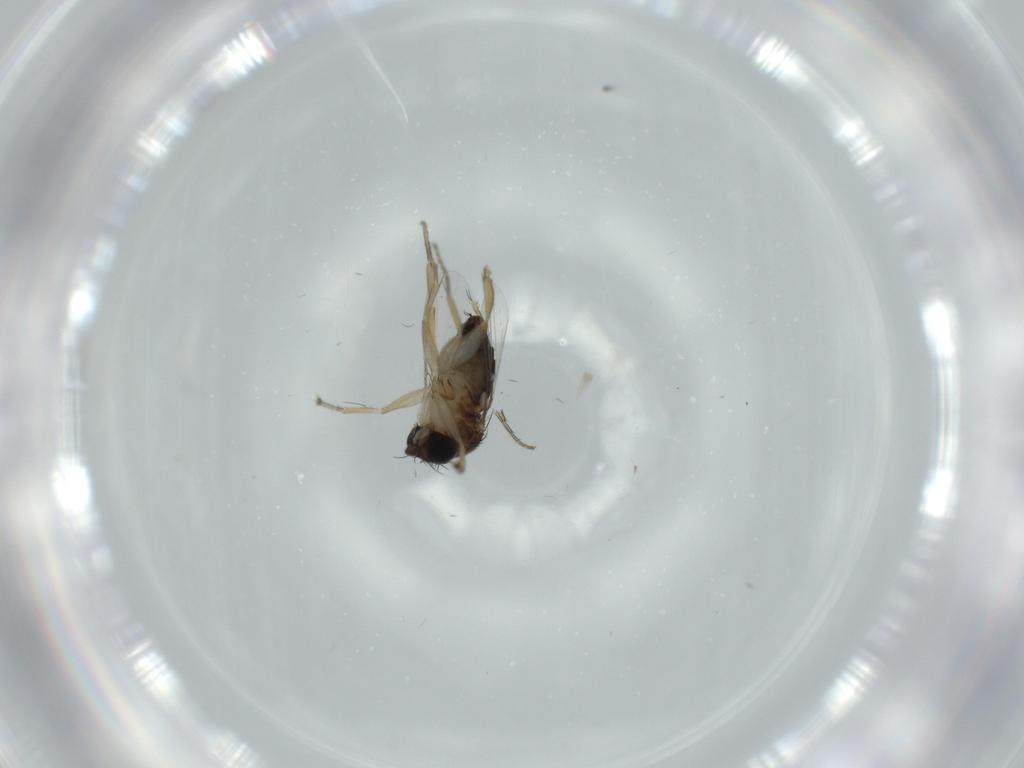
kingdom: Animalia
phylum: Arthropoda
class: Insecta
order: Diptera
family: Phoridae
